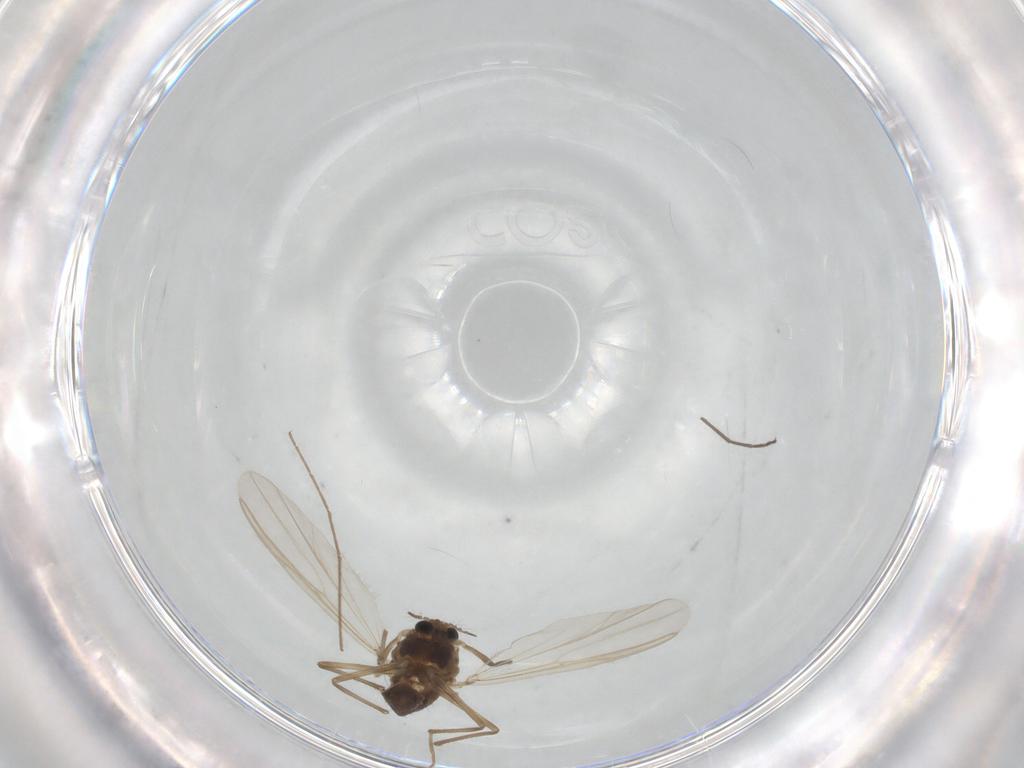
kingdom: Animalia
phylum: Arthropoda
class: Insecta
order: Diptera
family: Chironomidae
